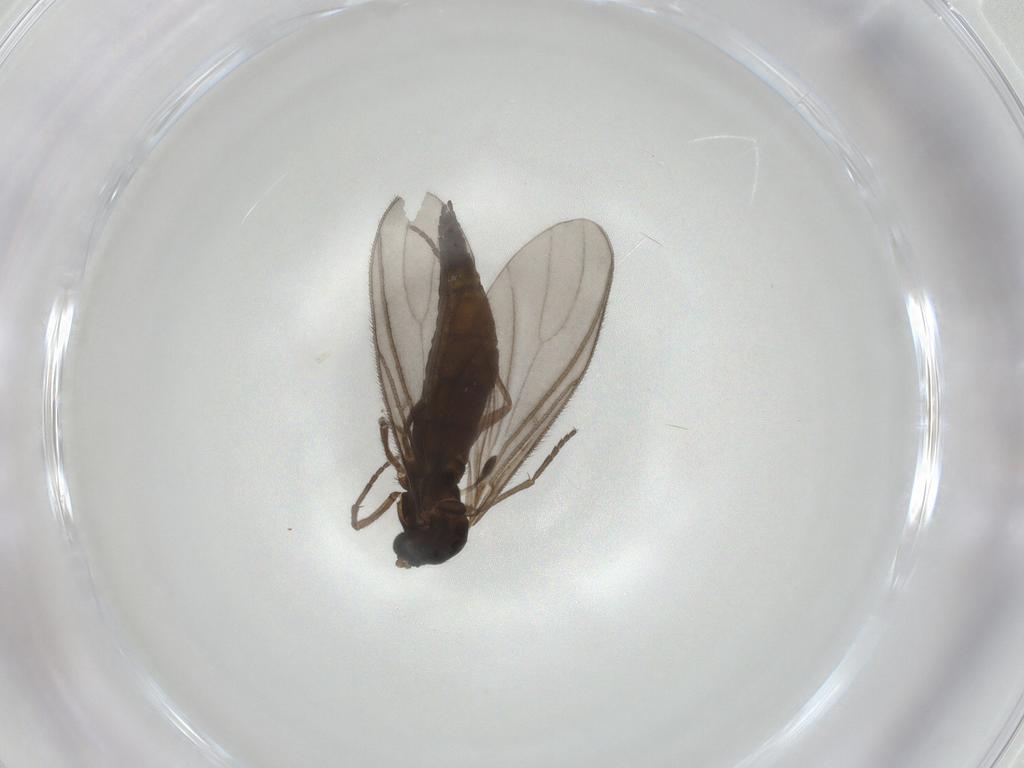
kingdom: Animalia
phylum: Arthropoda
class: Insecta
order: Diptera
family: Sciaridae
